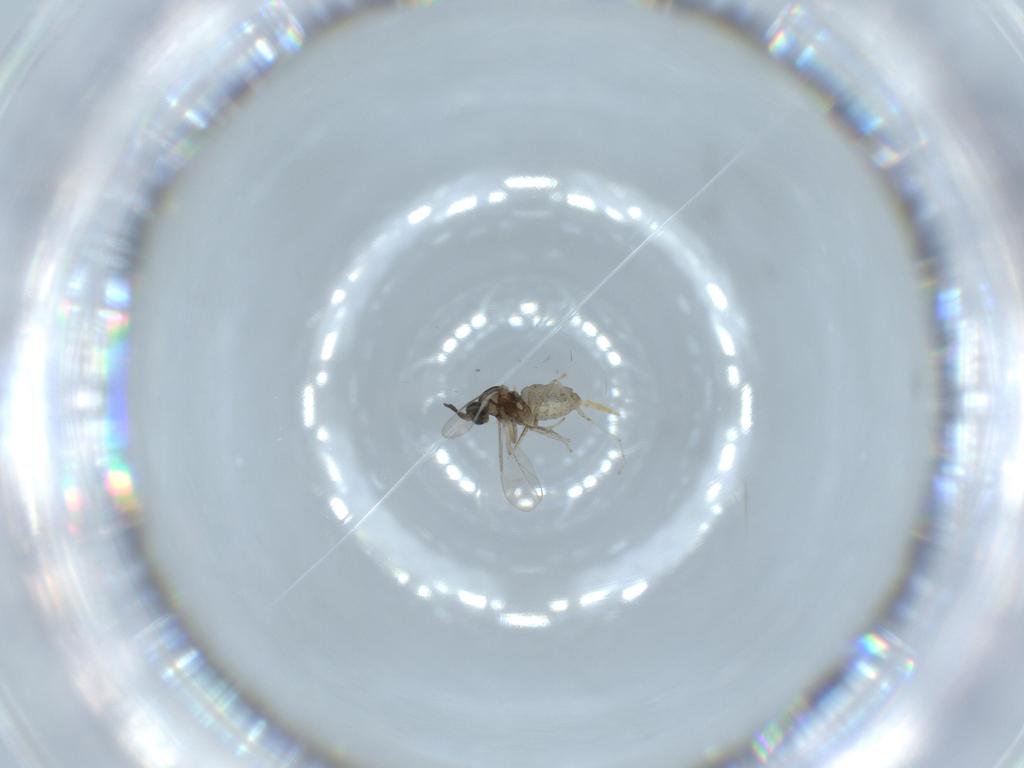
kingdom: Animalia
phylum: Arthropoda
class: Insecta
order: Diptera
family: Cecidomyiidae
